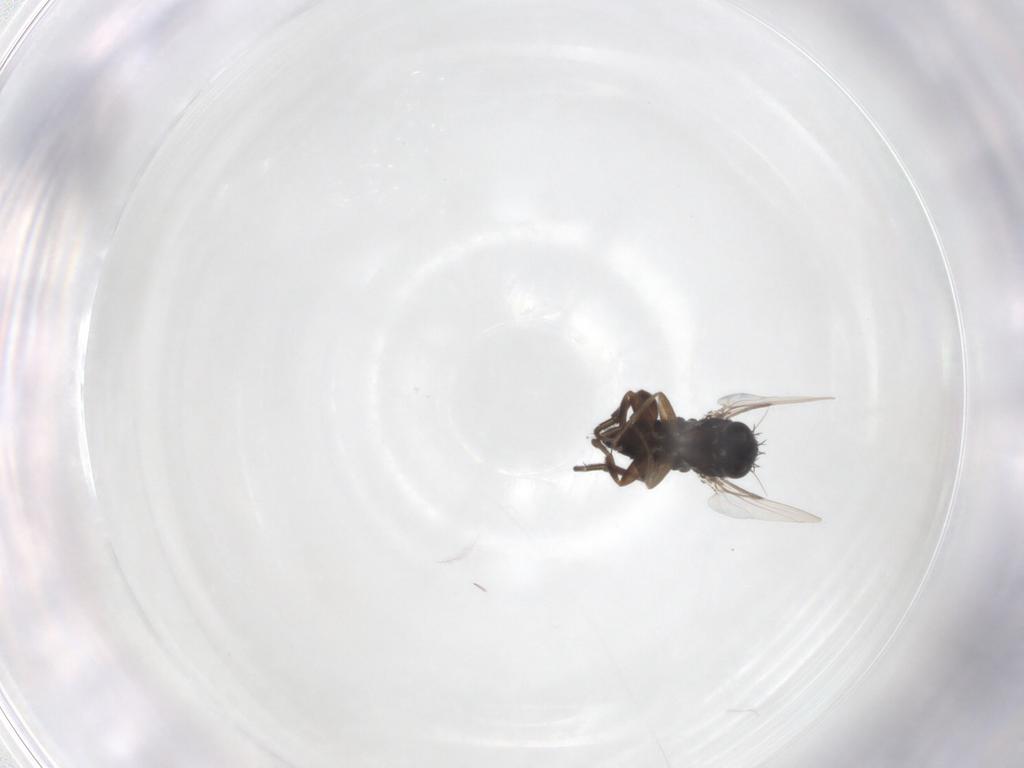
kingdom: Animalia
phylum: Arthropoda
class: Insecta
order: Diptera
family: Phoridae
